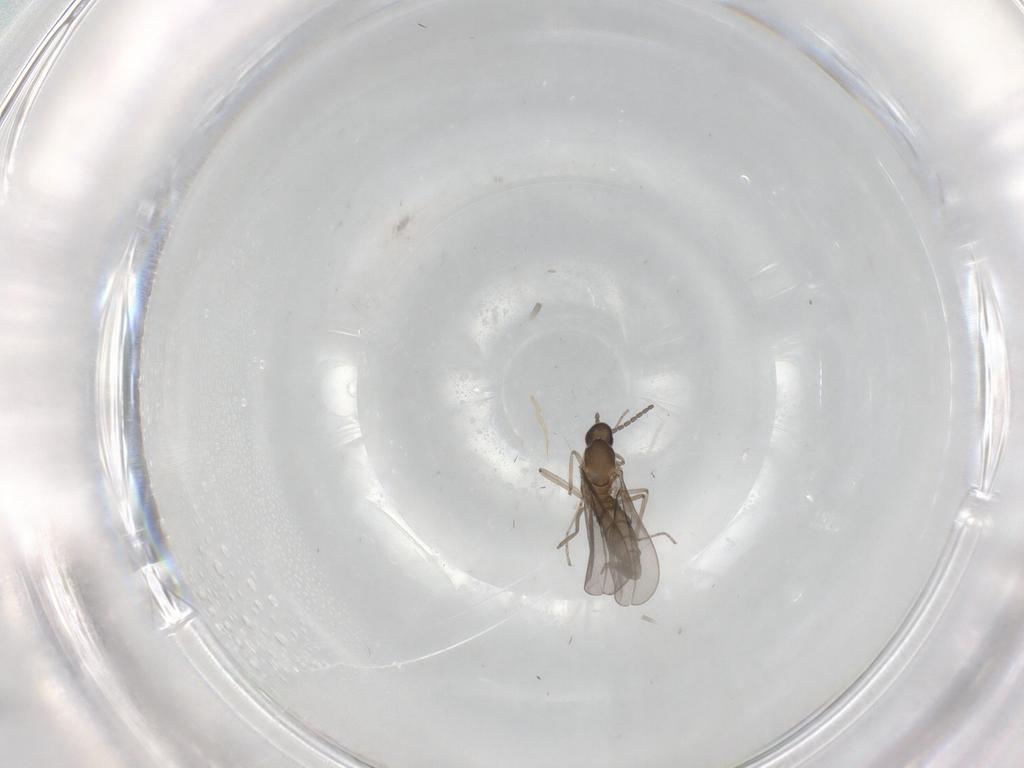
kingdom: Animalia
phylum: Arthropoda
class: Insecta
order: Diptera
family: Cecidomyiidae
